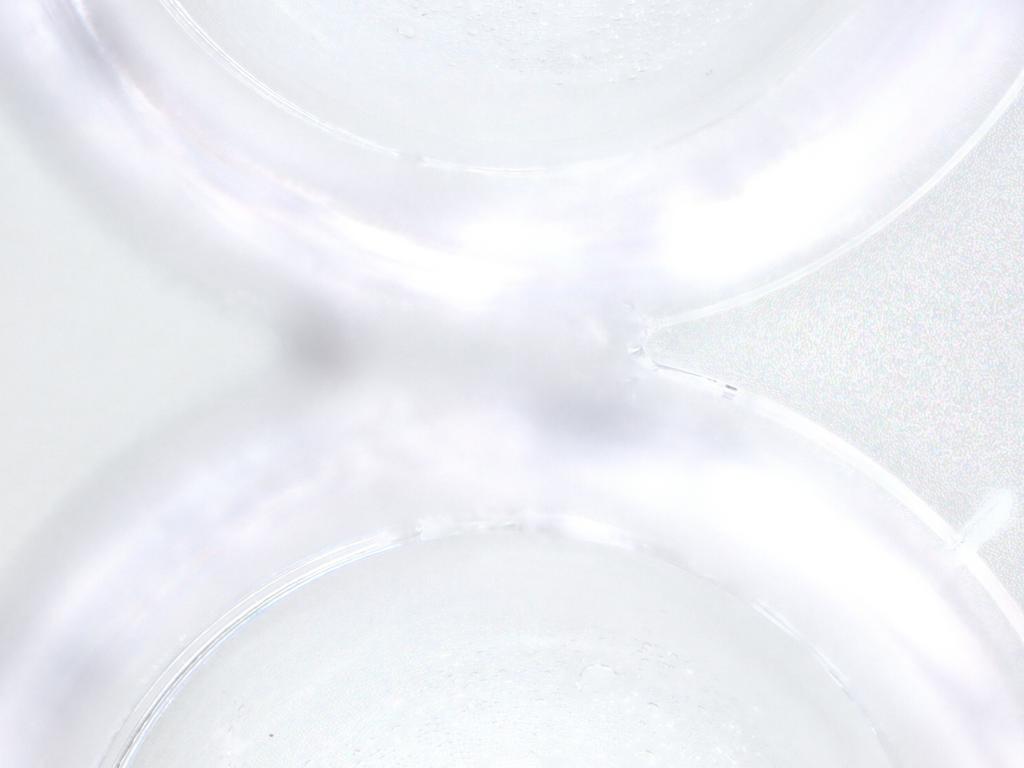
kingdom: Animalia
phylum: Arthropoda
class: Insecta
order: Diptera
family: Cecidomyiidae
